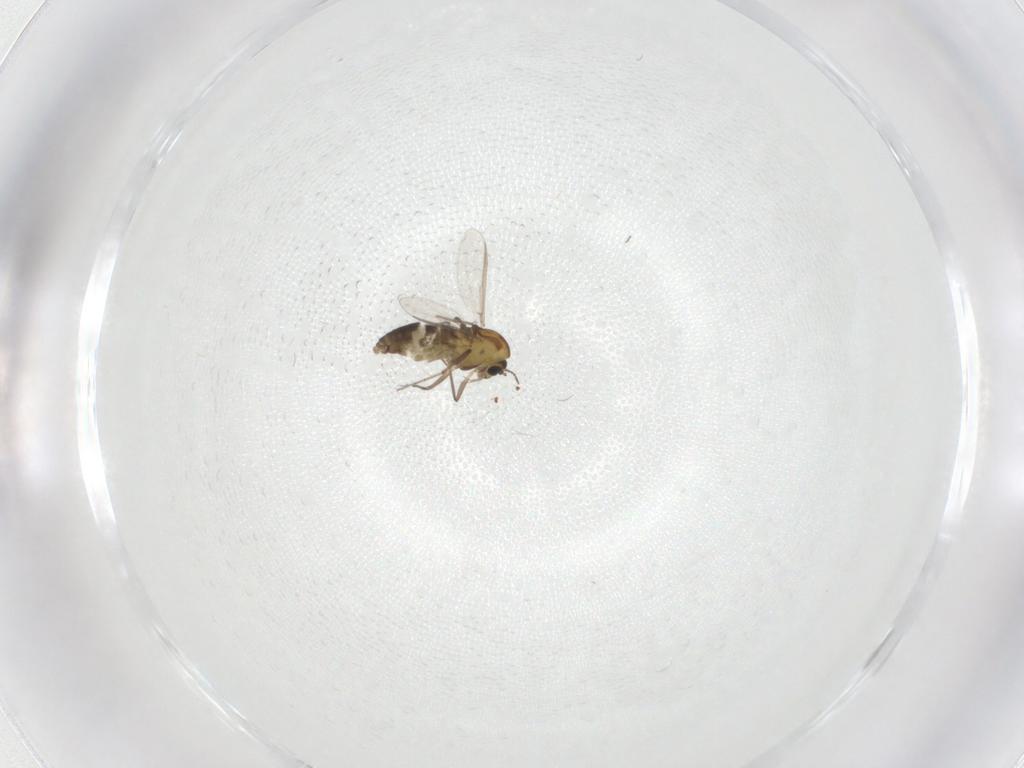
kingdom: Animalia
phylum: Arthropoda
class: Insecta
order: Diptera
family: Chironomidae
